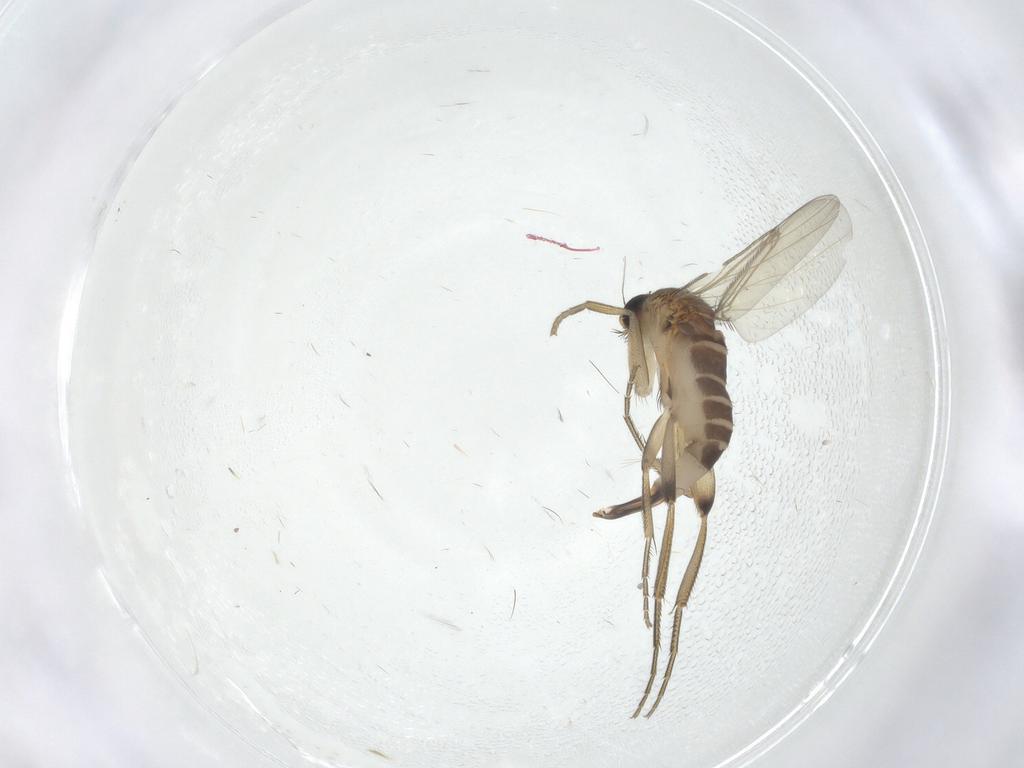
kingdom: Animalia
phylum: Arthropoda
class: Insecta
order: Diptera
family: Phoridae
